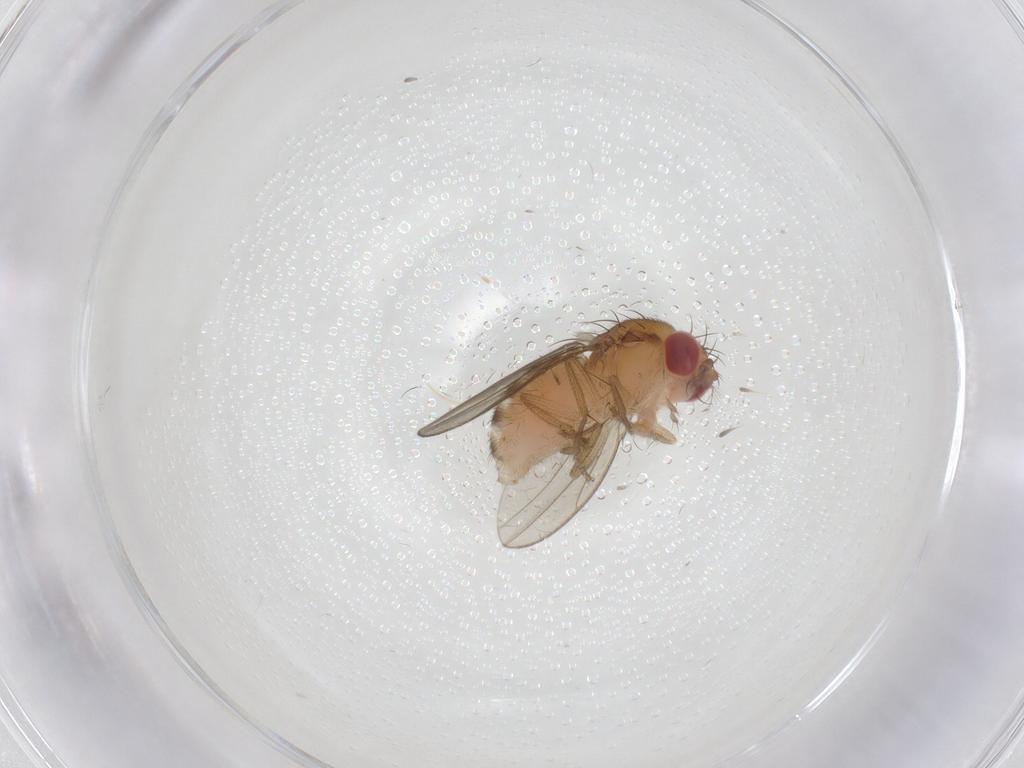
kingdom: Animalia
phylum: Arthropoda
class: Insecta
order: Diptera
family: Drosophilidae
